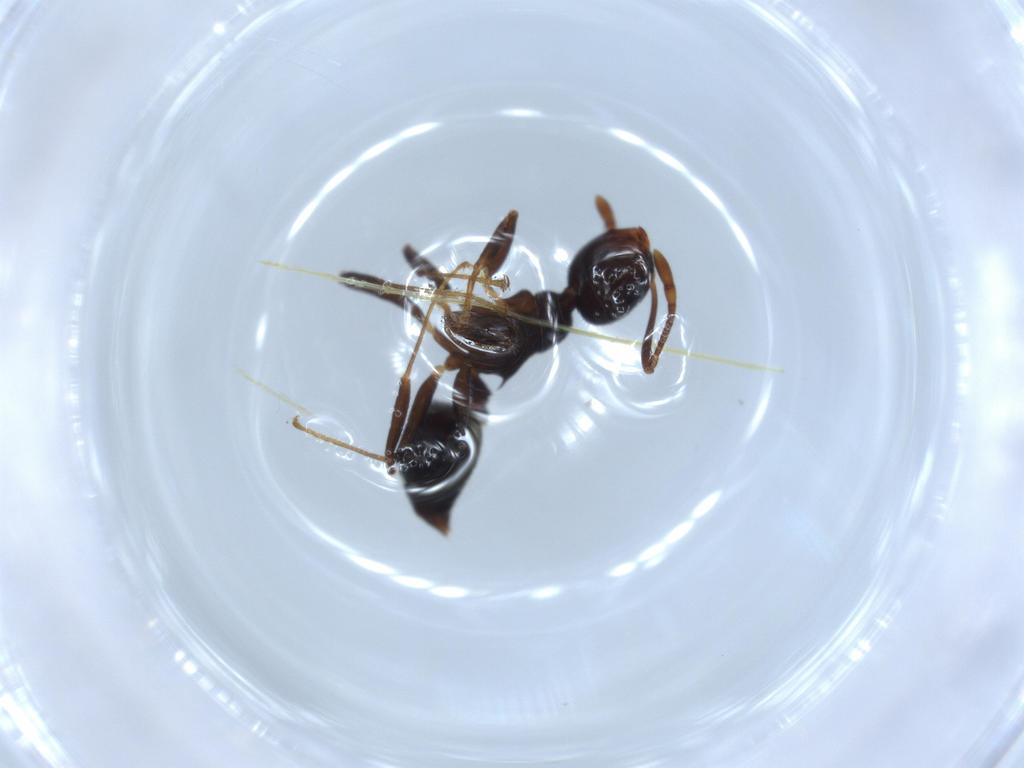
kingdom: Animalia
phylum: Arthropoda
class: Insecta
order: Hymenoptera
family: Formicidae
